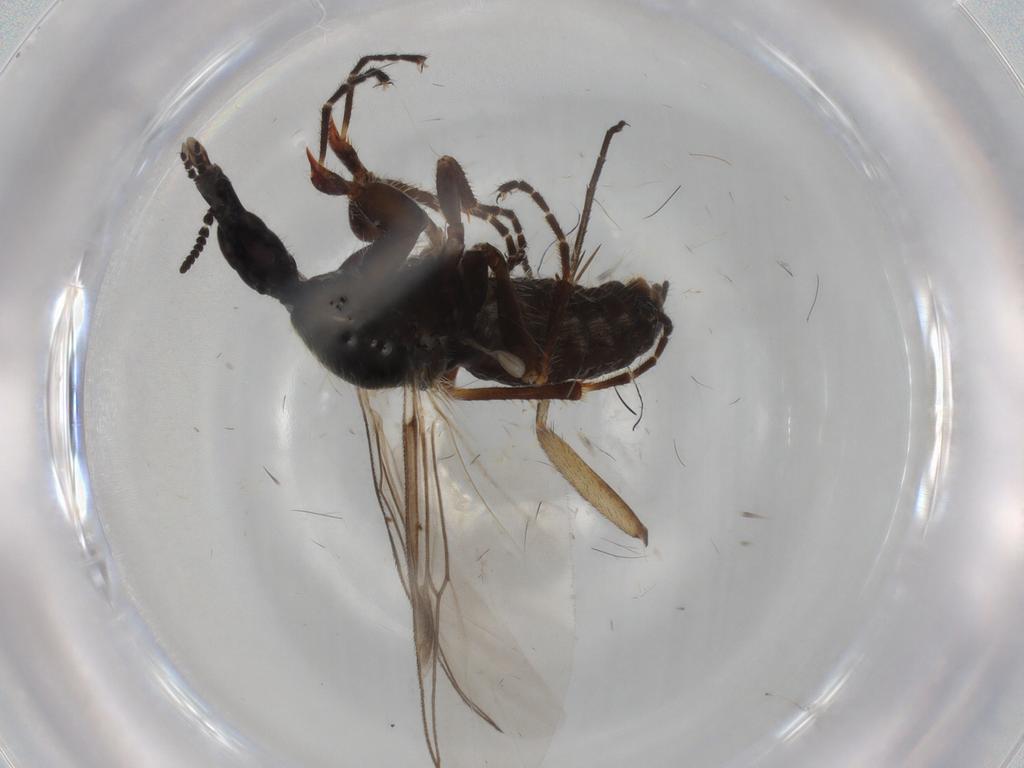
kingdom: Animalia
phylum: Arthropoda
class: Insecta
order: Diptera
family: Bibionidae
